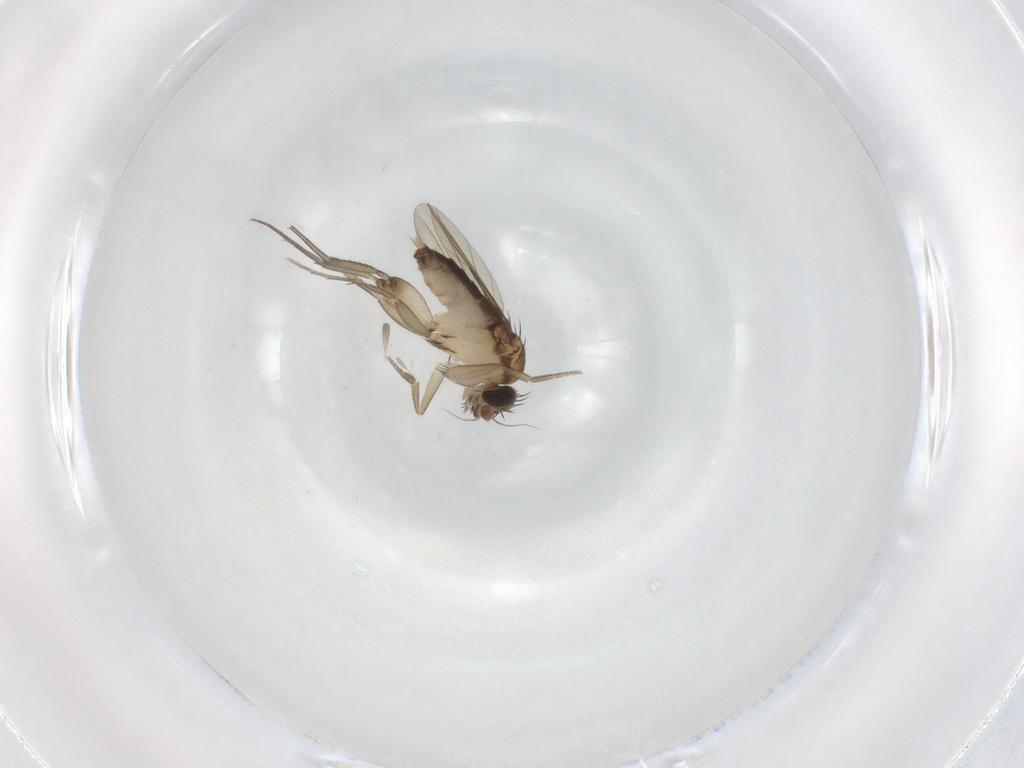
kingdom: Animalia
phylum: Arthropoda
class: Insecta
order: Diptera
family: Phoridae
